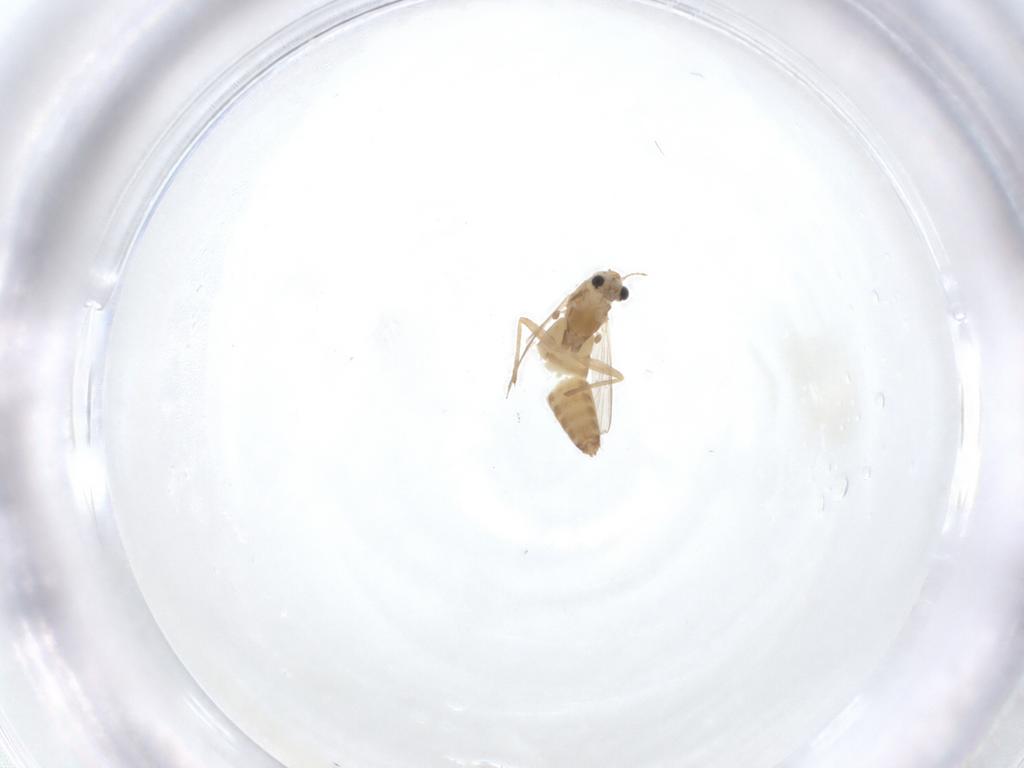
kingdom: Animalia
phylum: Arthropoda
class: Insecta
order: Diptera
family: Chironomidae
